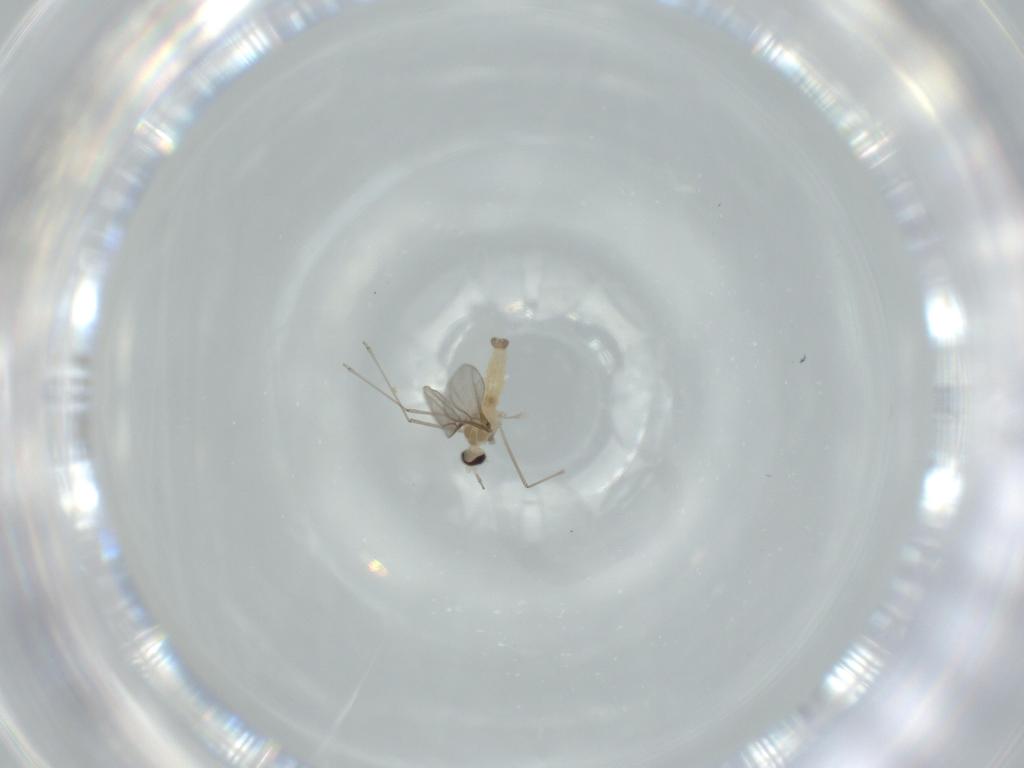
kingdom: Animalia
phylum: Arthropoda
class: Insecta
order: Diptera
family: Cecidomyiidae
